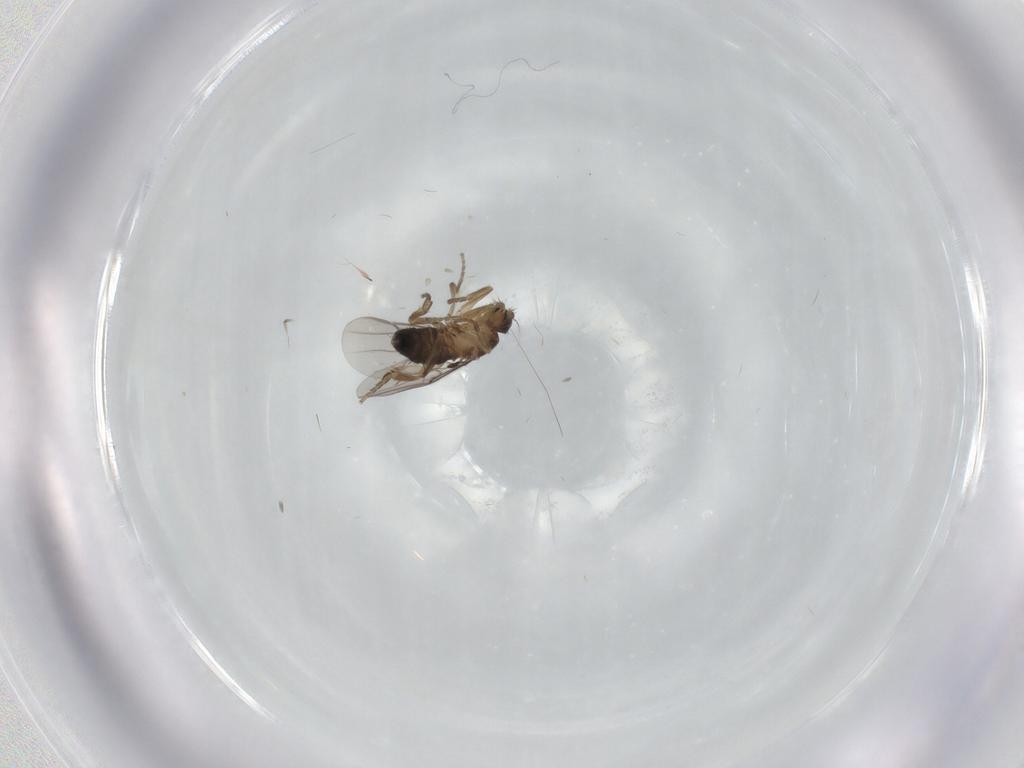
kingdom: Animalia
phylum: Arthropoda
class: Insecta
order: Diptera
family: Phoridae
